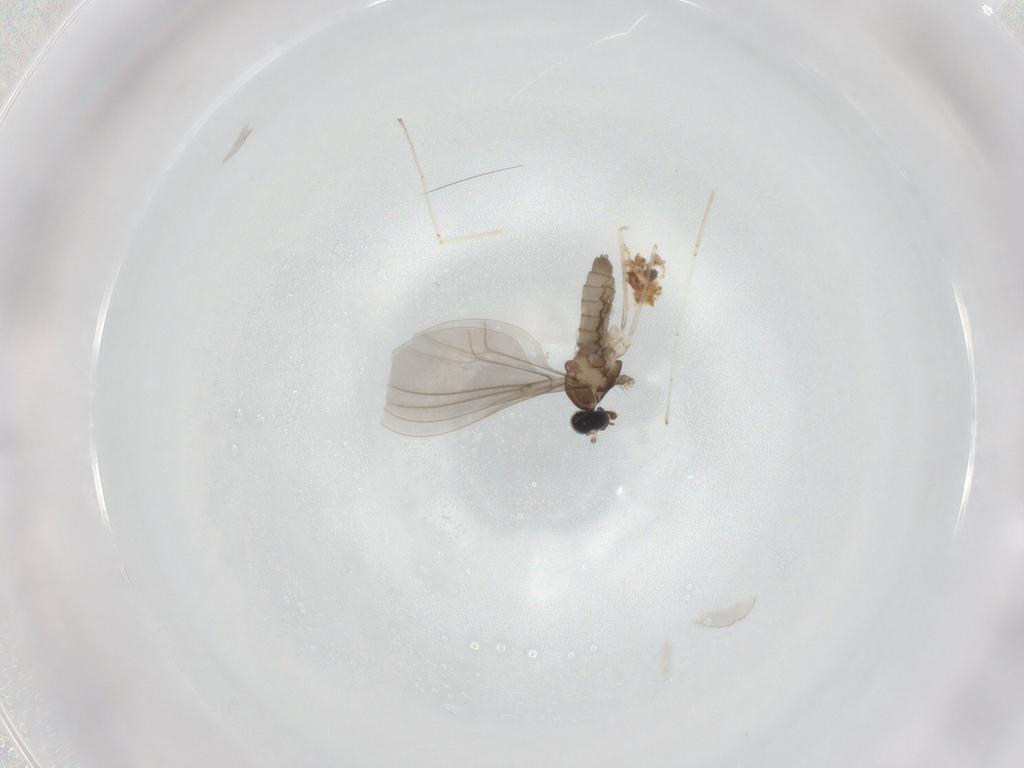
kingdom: Animalia
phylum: Arthropoda
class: Insecta
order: Diptera
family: Cecidomyiidae
